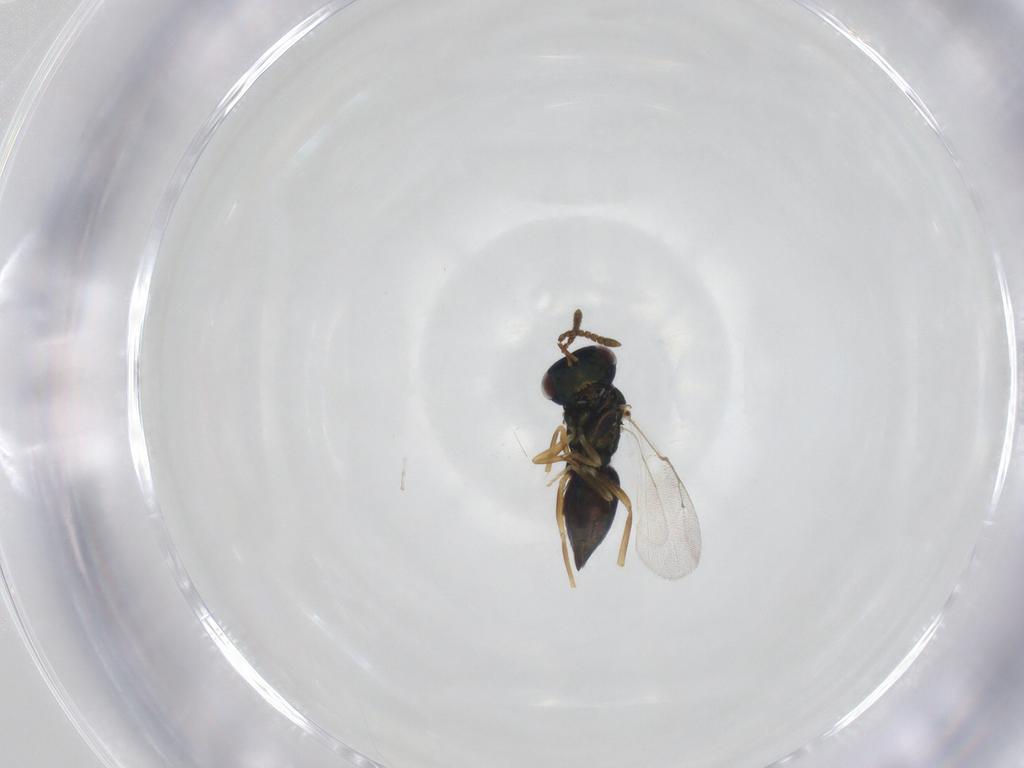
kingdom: Animalia
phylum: Arthropoda
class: Insecta
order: Hymenoptera
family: Pteromalidae
